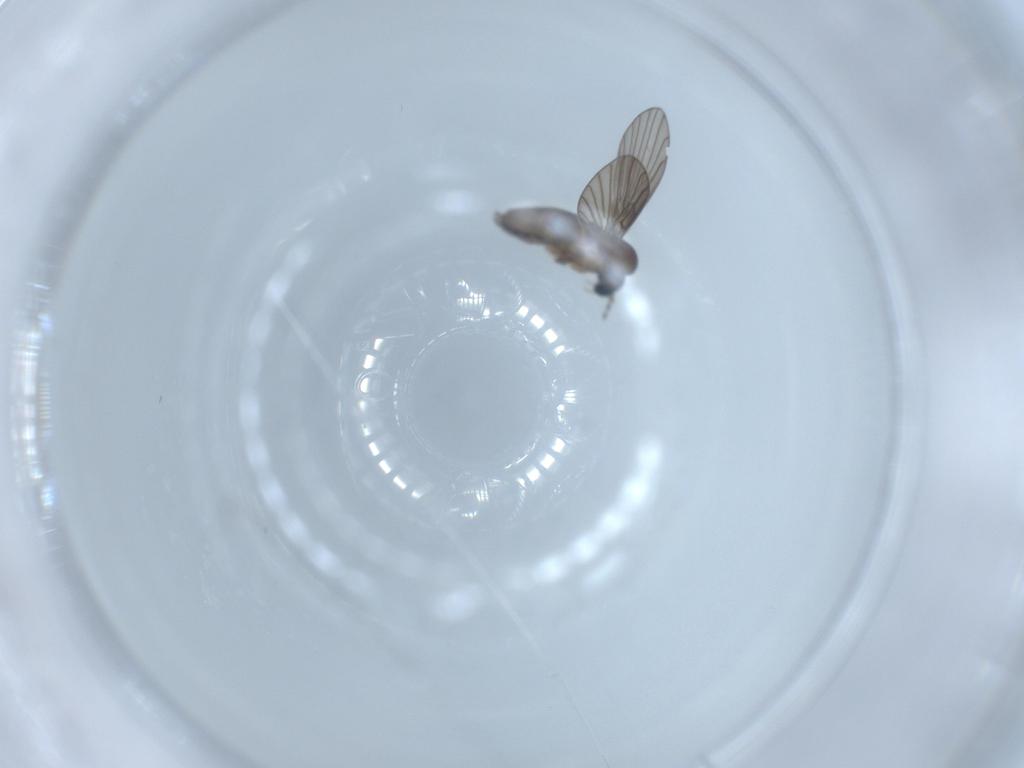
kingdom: Animalia
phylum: Arthropoda
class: Insecta
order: Diptera
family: Psychodidae
